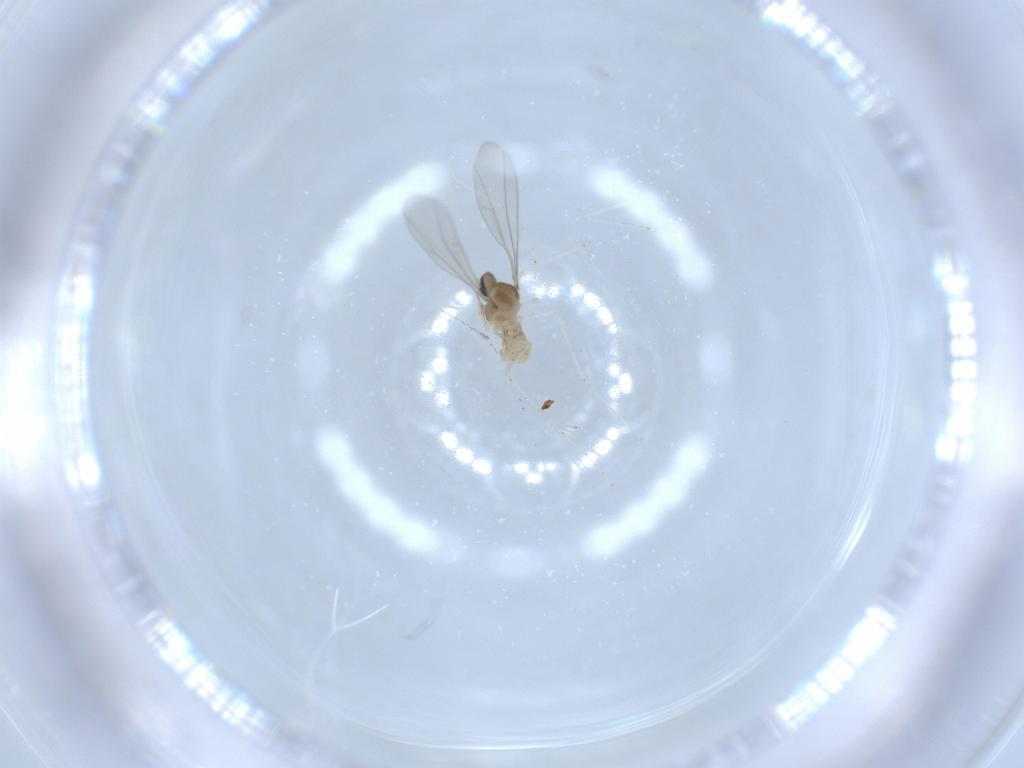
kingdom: Animalia
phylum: Arthropoda
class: Insecta
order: Diptera
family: Cecidomyiidae
